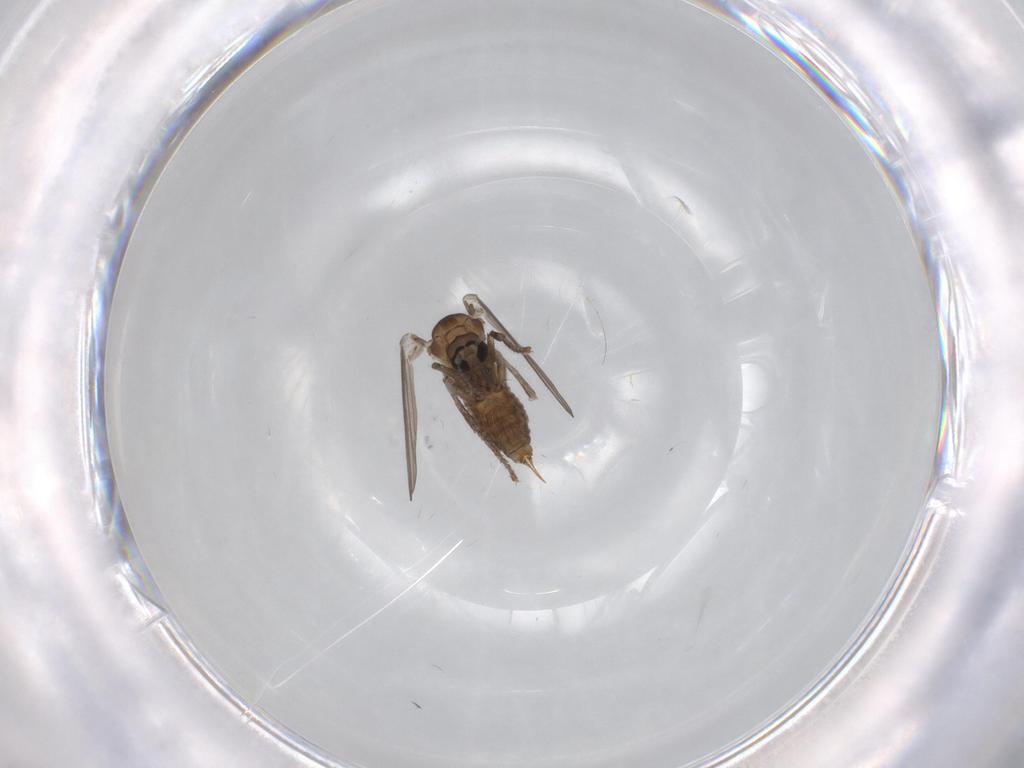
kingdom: Animalia
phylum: Arthropoda
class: Insecta
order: Diptera
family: Psychodidae
